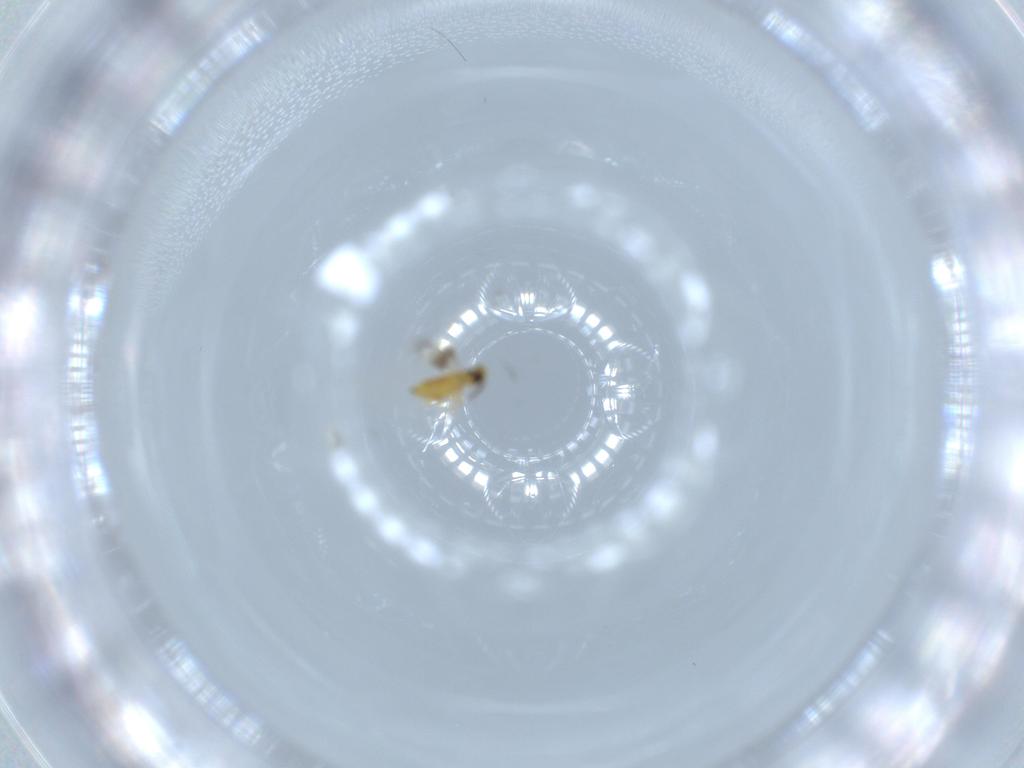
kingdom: Animalia
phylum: Arthropoda
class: Insecta
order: Hymenoptera
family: Signiphoridae
